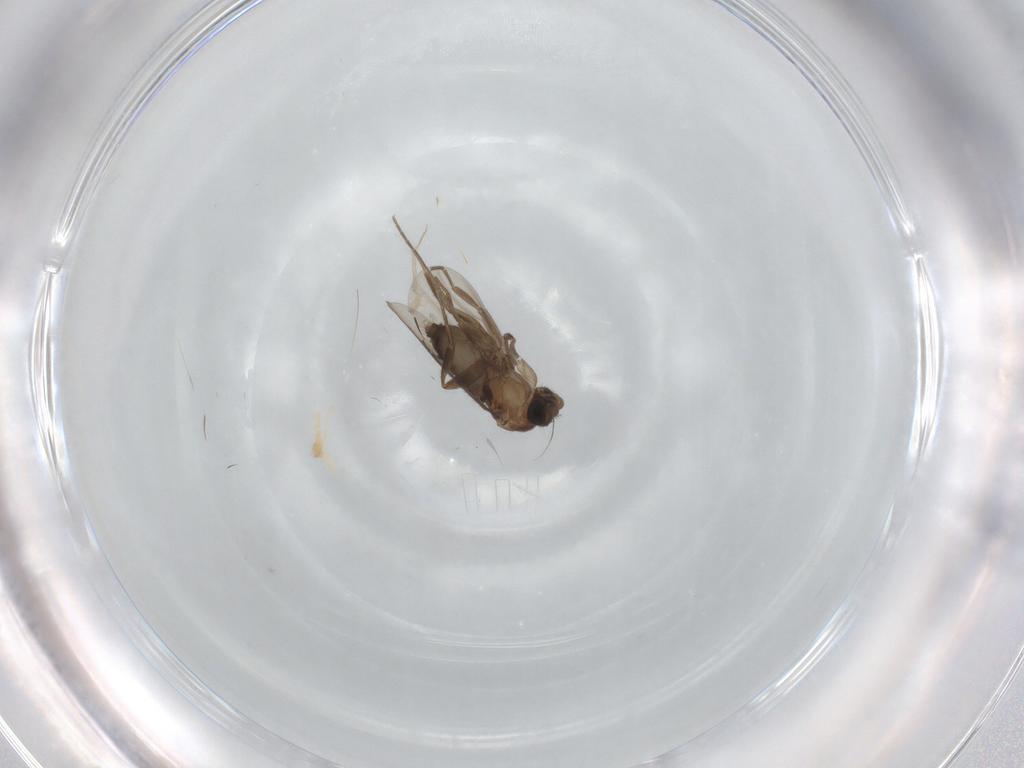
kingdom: Animalia
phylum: Arthropoda
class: Insecta
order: Diptera
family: Phoridae
